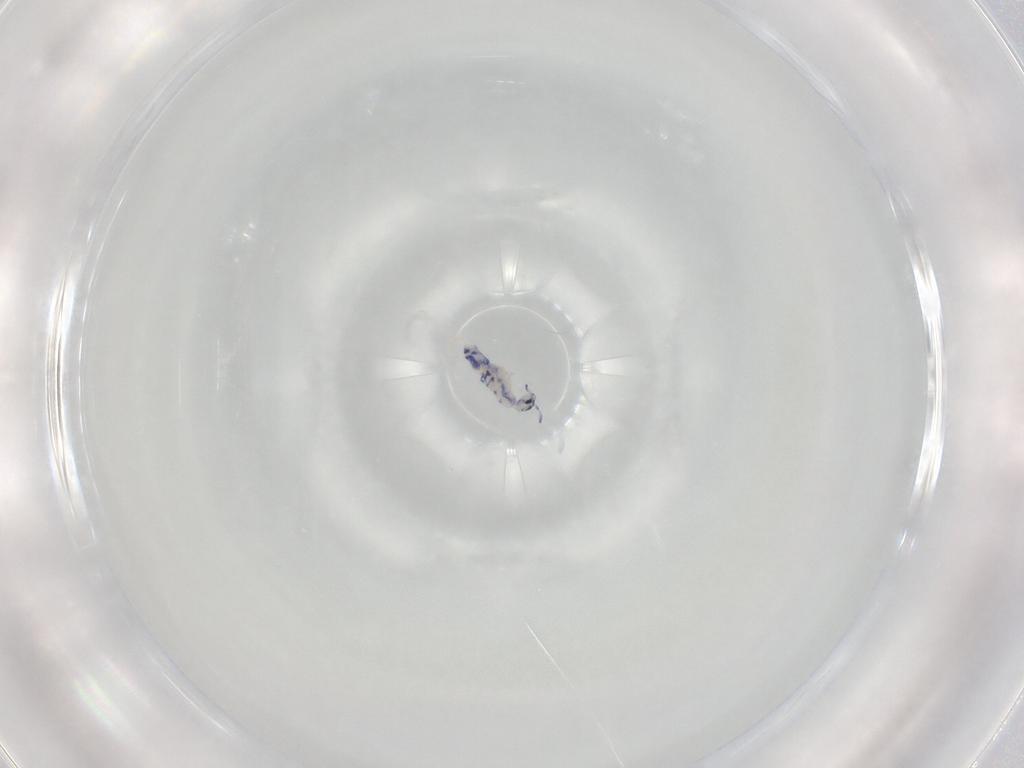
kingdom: Animalia
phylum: Arthropoda
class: Collembola
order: Entomobryomorpha
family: Entomobryidae
